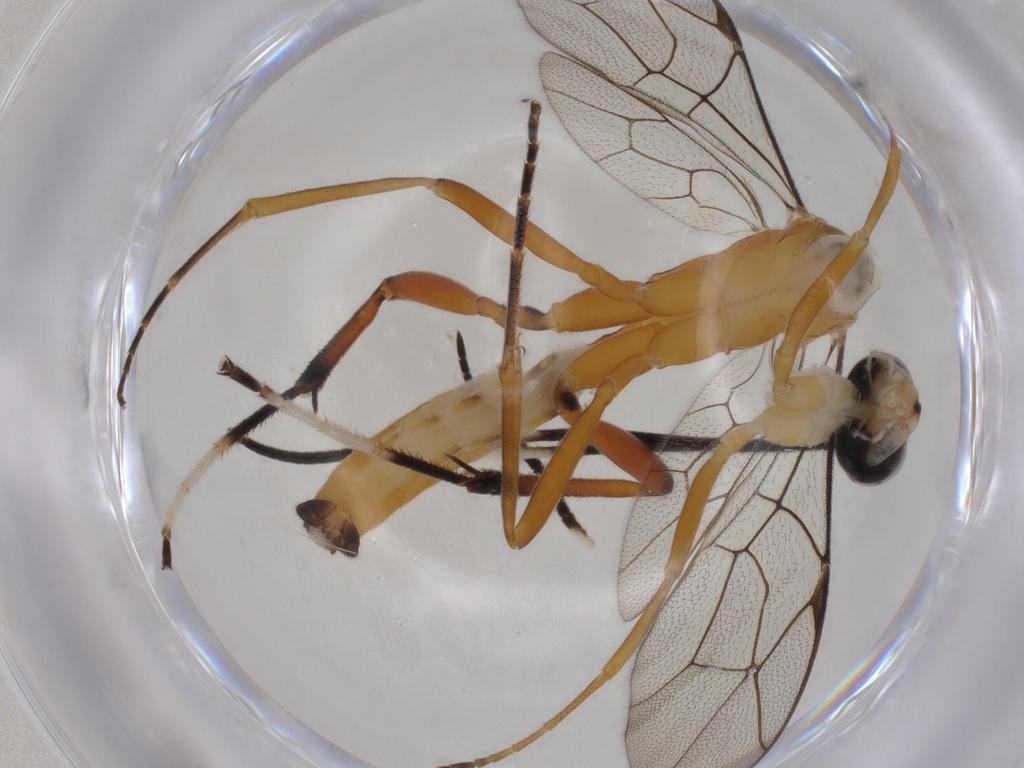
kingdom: Animalia
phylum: Arthropoda
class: Insecta
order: Hymenoptera
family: Ichneumonidae
